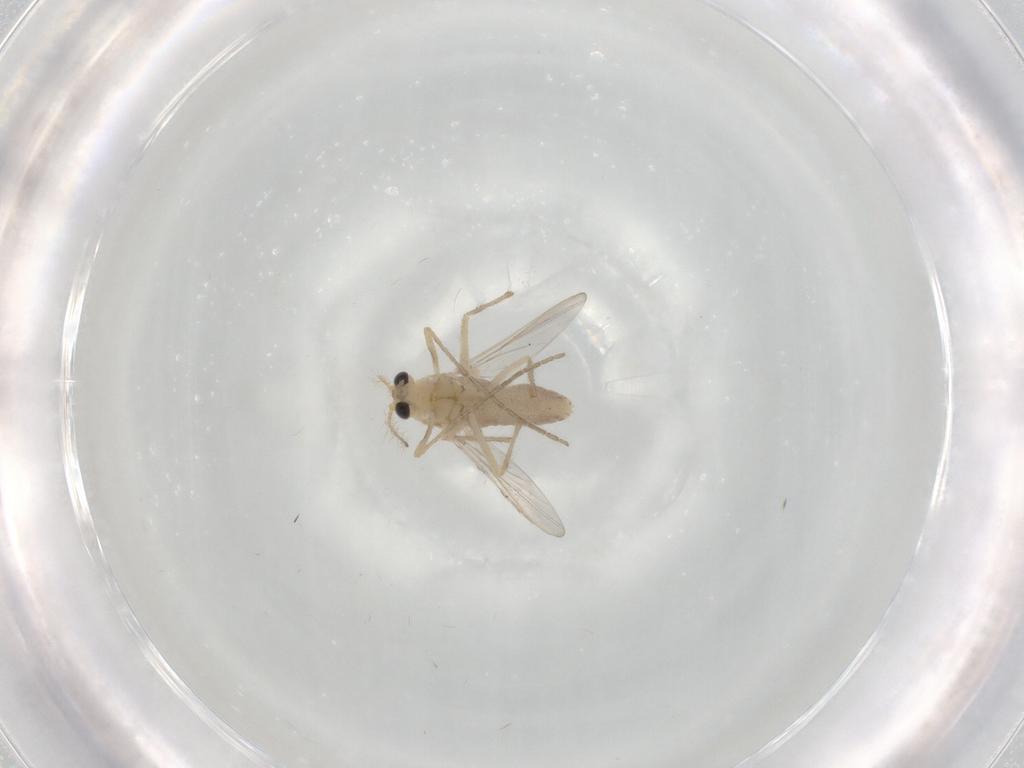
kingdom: Animalia
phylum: Arthropoda
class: Insecta
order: Diptera
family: Chironomidae
